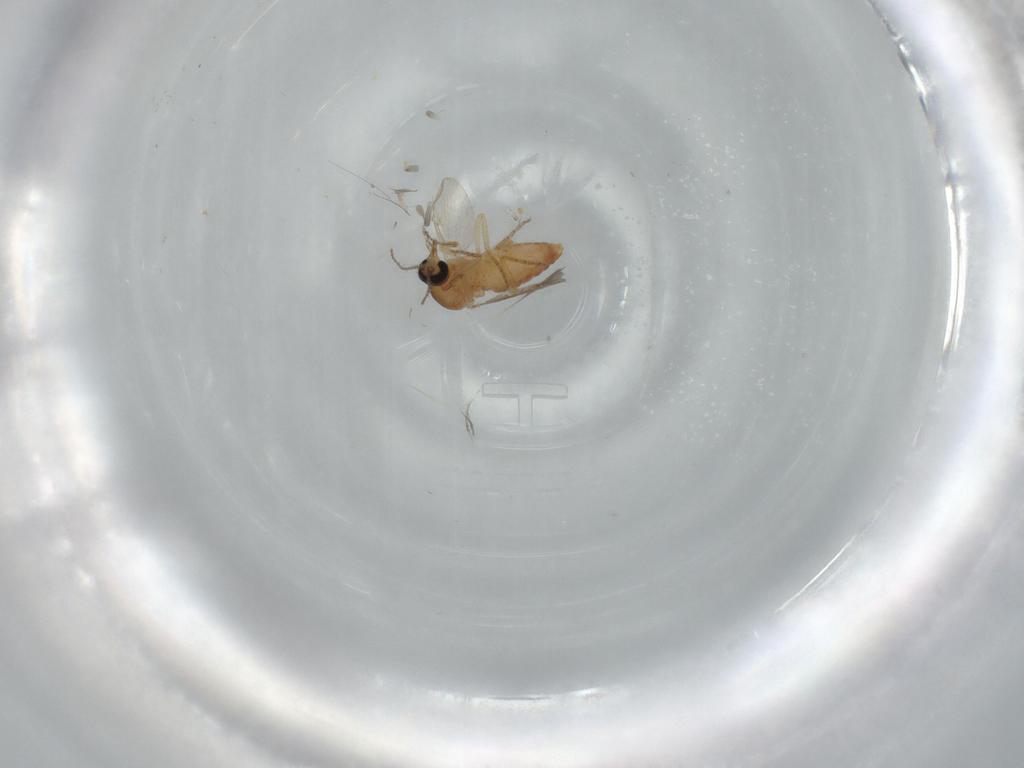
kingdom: Animalia
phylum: Arthropoda
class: Insecta
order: Diptera
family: Ceratopogonidae
